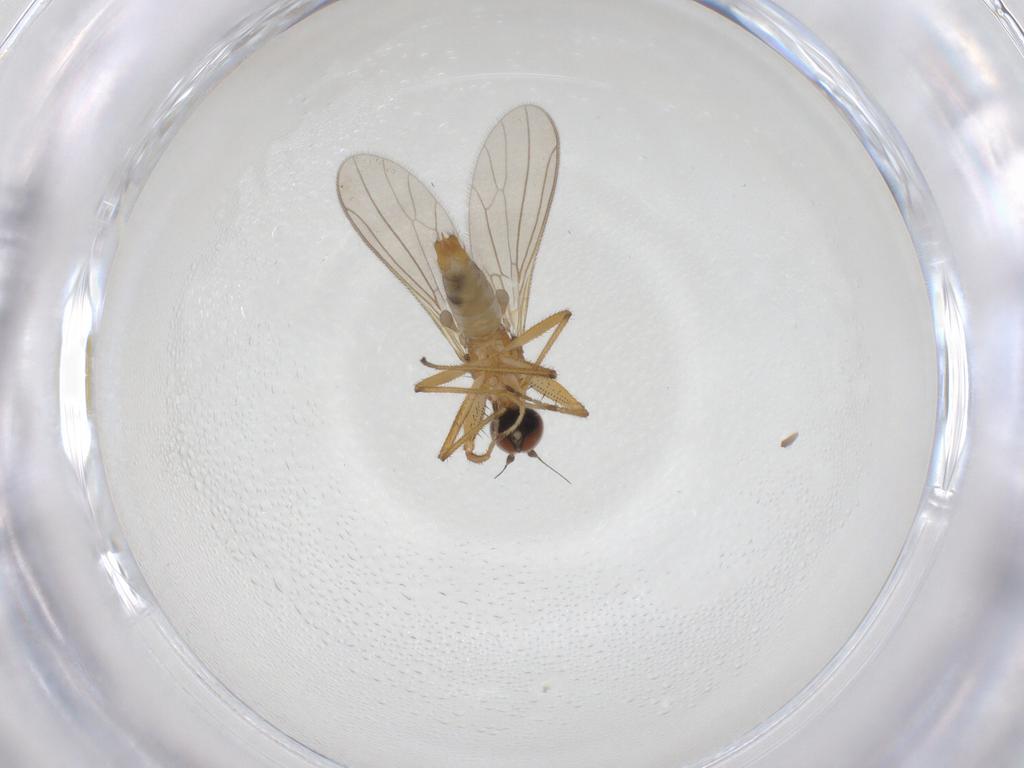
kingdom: Animalia
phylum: Arthropoda
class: Insecta
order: Diptera
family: Empididae
